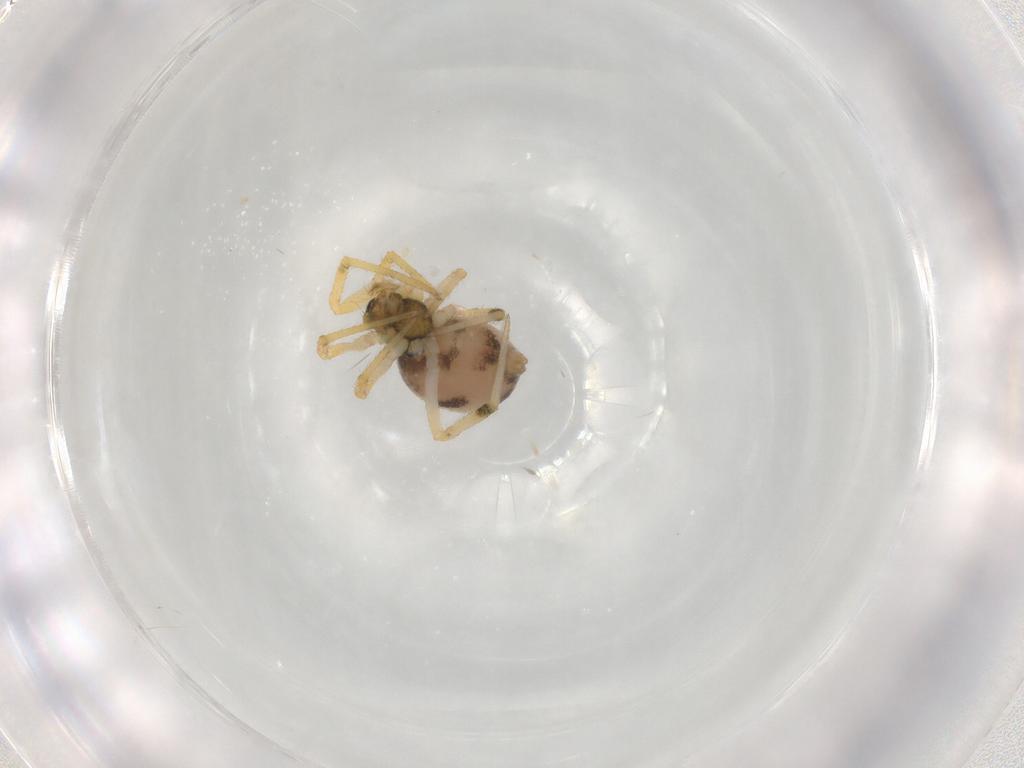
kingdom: Animalia
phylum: Arthropoda
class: Arachnida
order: Araneae
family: Theridiidae
